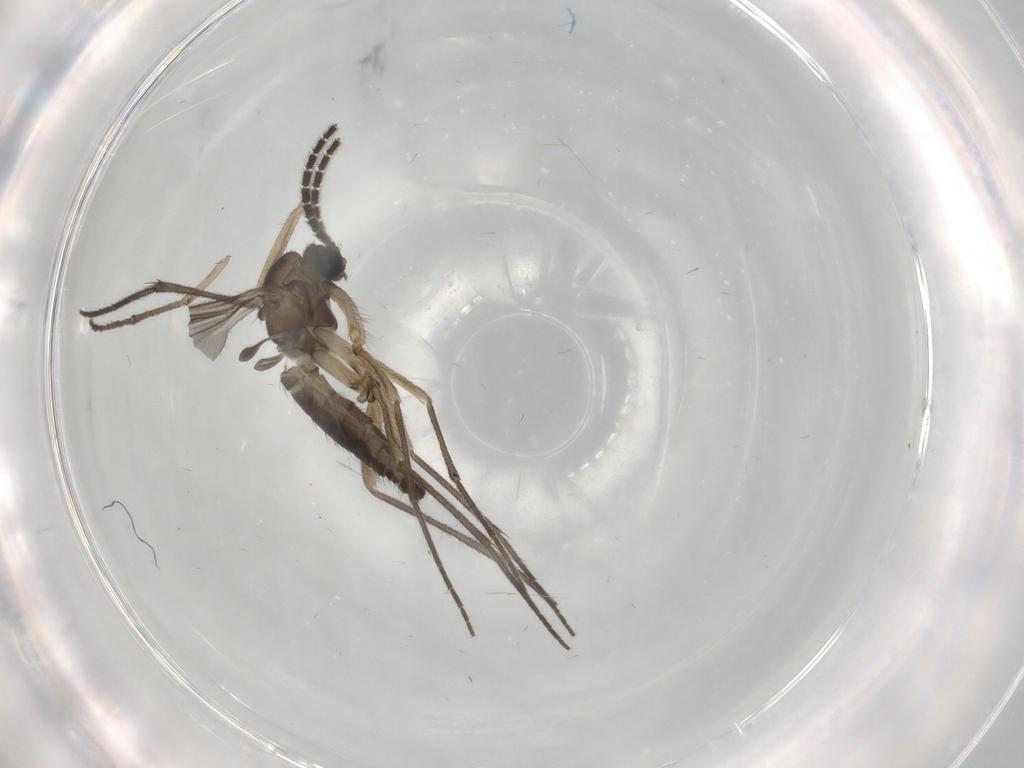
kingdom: Animalia
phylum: Arthropoda
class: Insecta
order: Diptera
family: Sciaridae
